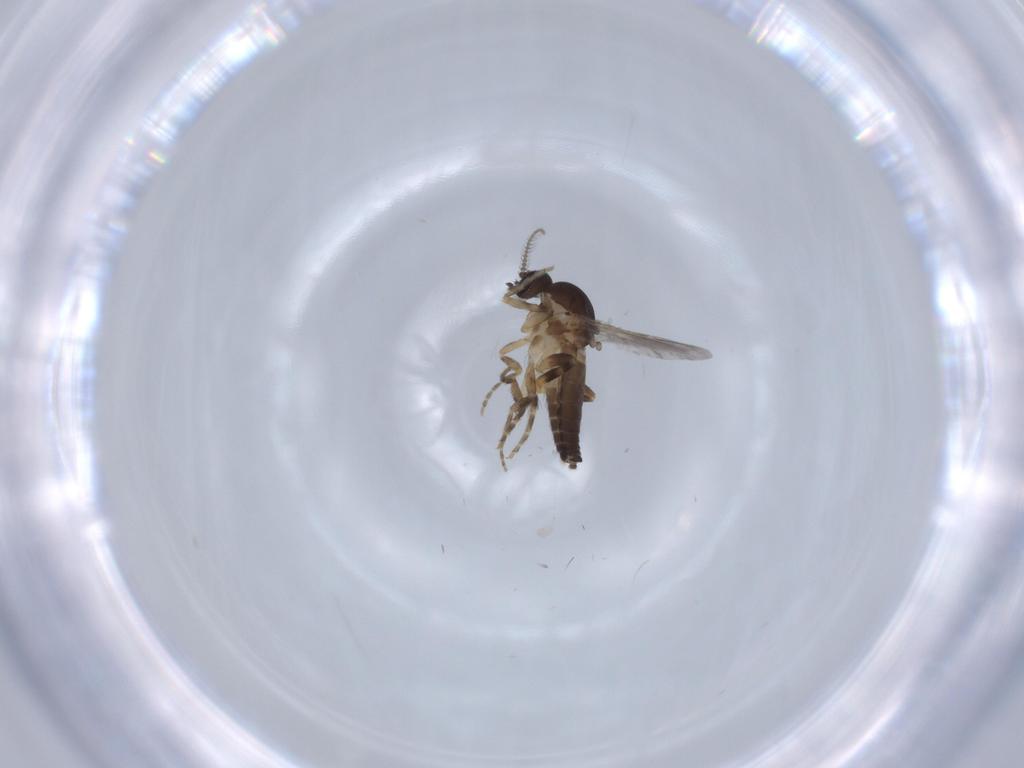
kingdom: Animalia
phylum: Arthropoda
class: Insecta
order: Diptera
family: Ceratopogonidae
